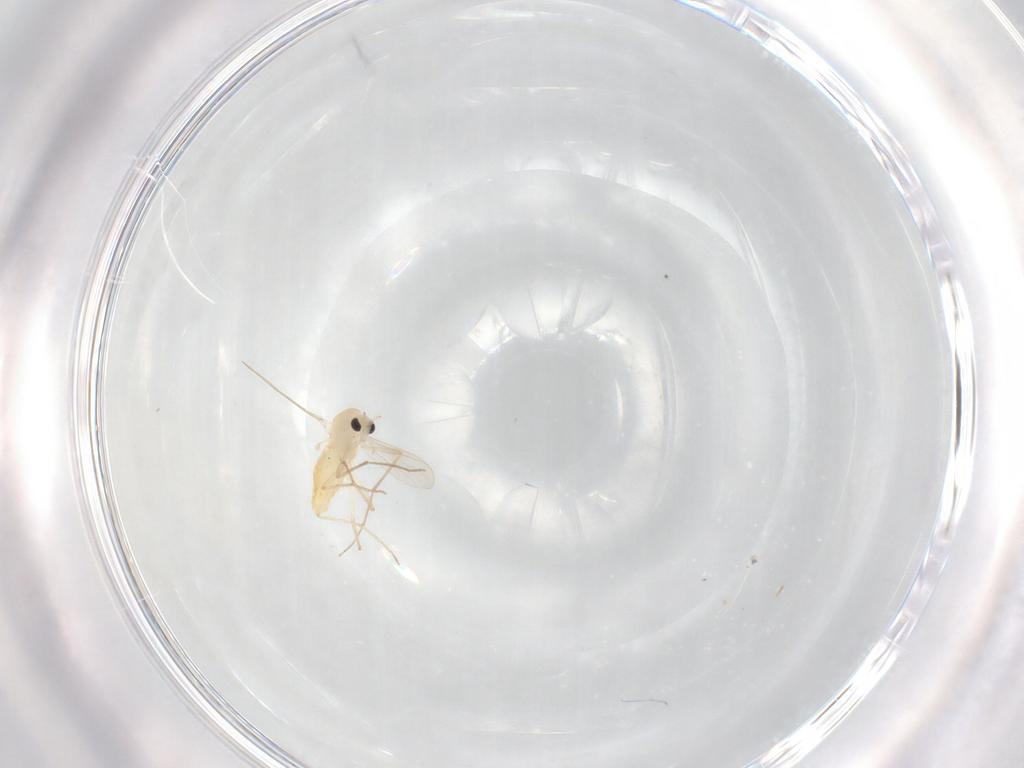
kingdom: Animalia
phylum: Arthropoda
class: Insecta
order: Diptera
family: Chironomidae
